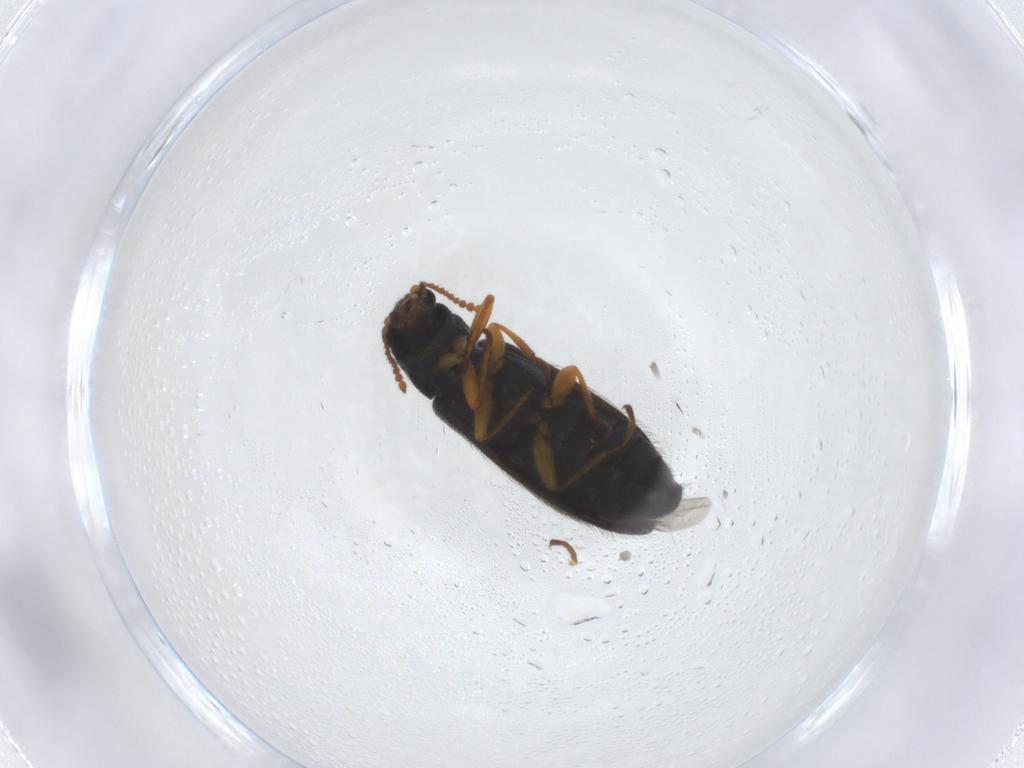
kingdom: Animalia
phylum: Arthropoda
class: Insecta
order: Coleoptera
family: Melyridae
